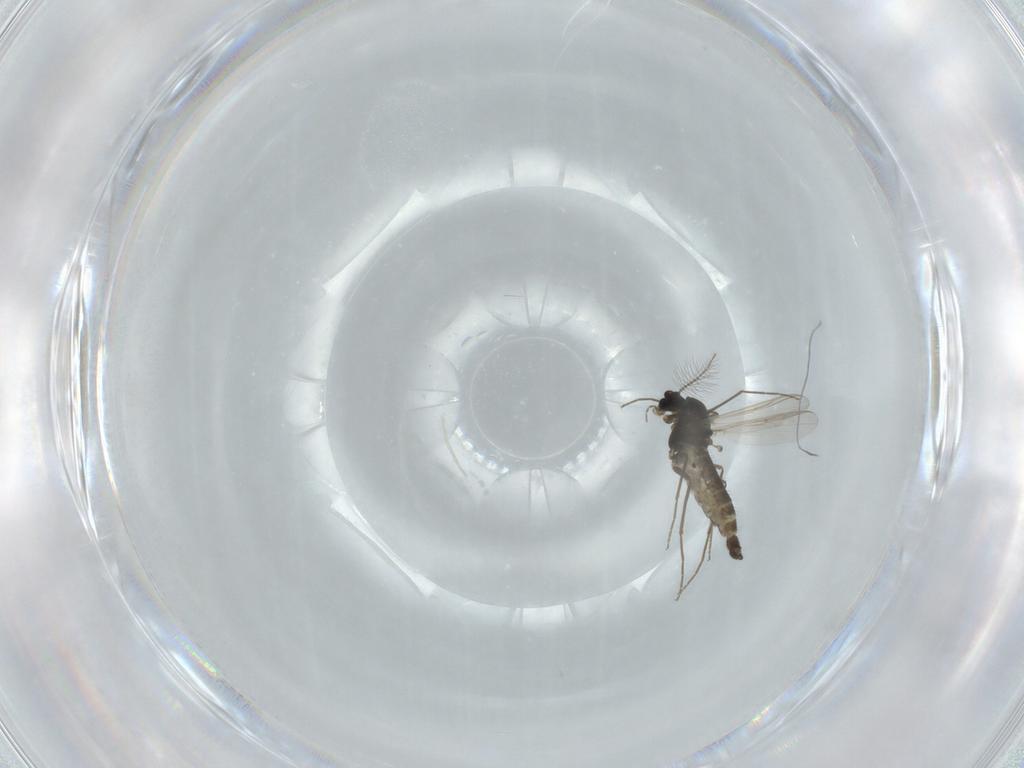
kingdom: Animalia
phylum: Arthropoda
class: Insecta
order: Diptera
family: Chironomidae
